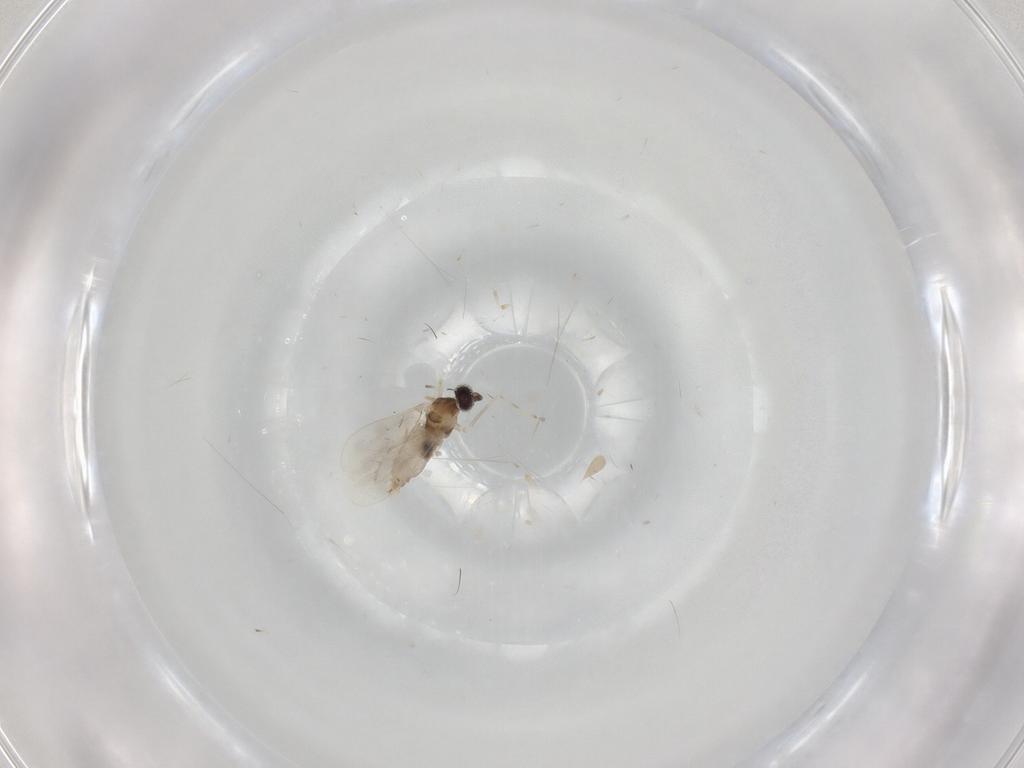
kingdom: Animalia
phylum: Arthropoda
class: Insecta
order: Diptera
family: Cecidomyiidae
